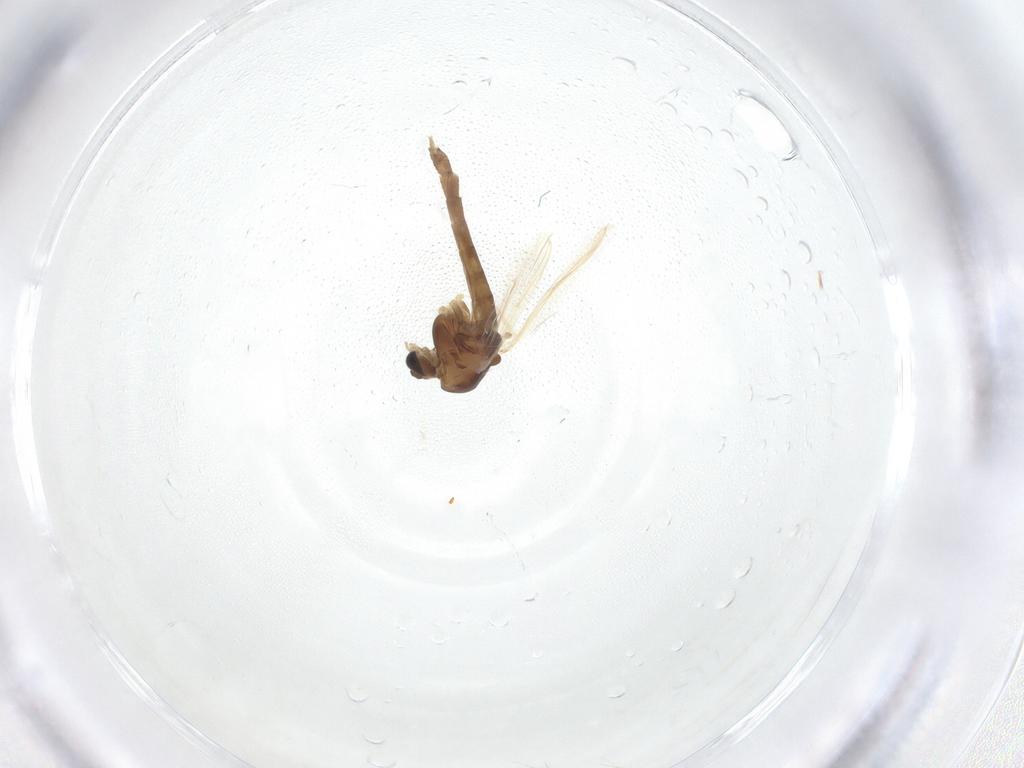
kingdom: Animalia
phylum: Arthropoda
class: Insecta
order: Diptera
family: Chironomidae
